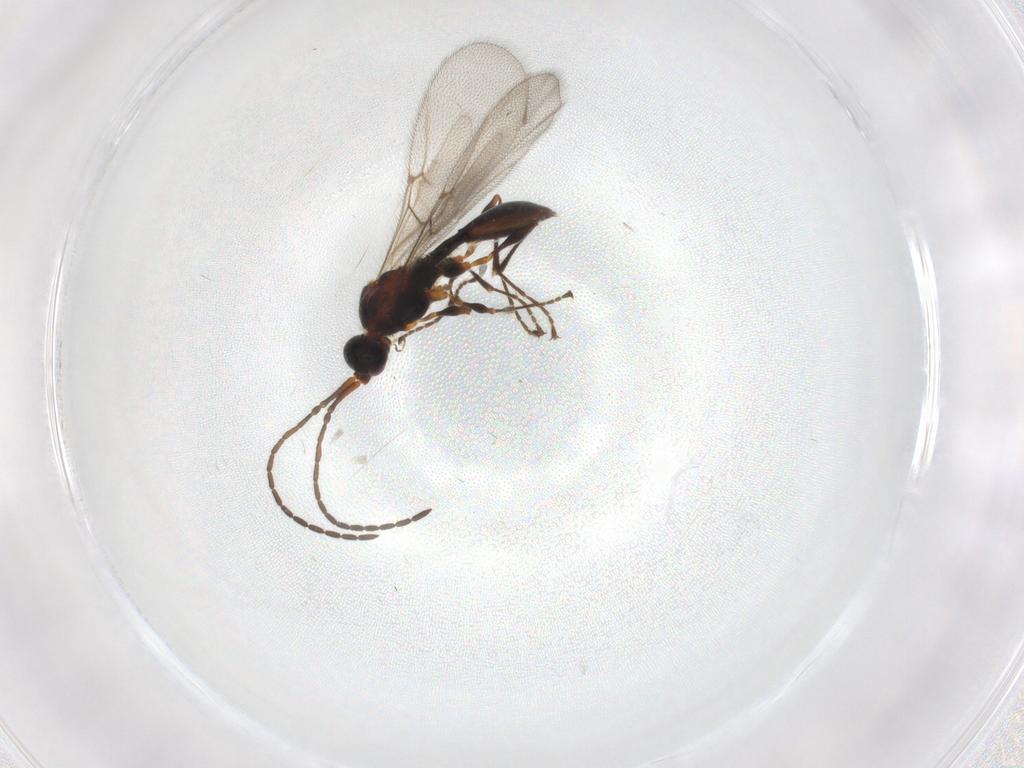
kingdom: Animalia
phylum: Arthropoda
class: Insecta
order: Hymenoptera
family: Diapriidae
